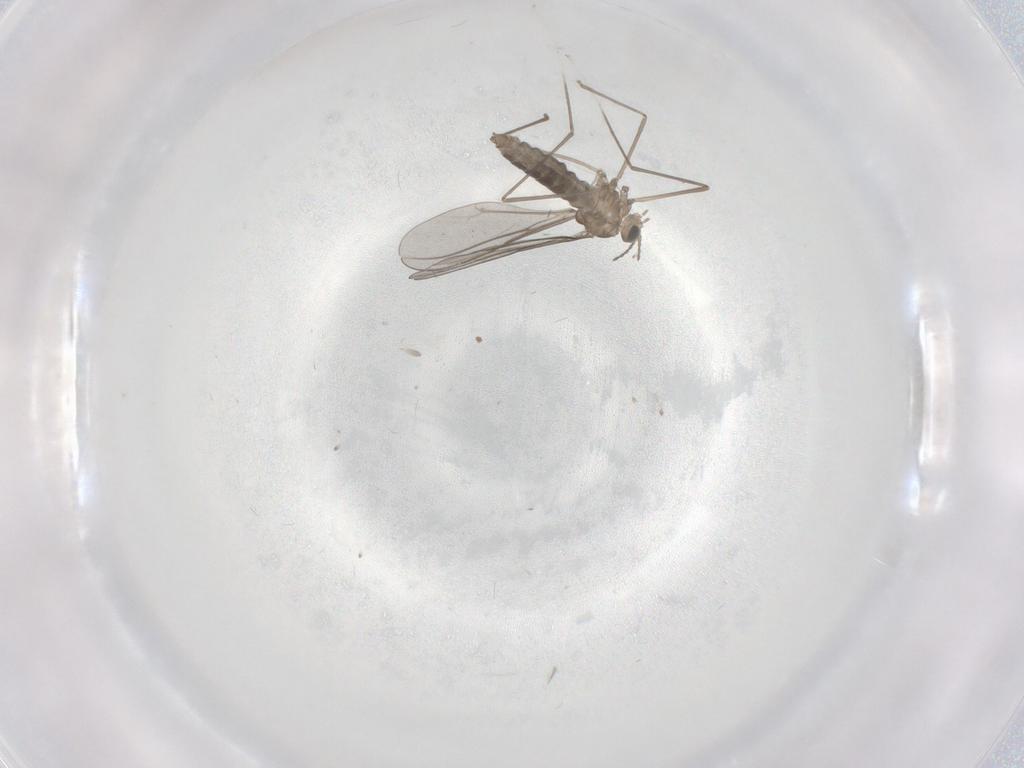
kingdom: Animalia
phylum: Arthropoda
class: Insecta
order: Diptera
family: Cecidomyiidae
